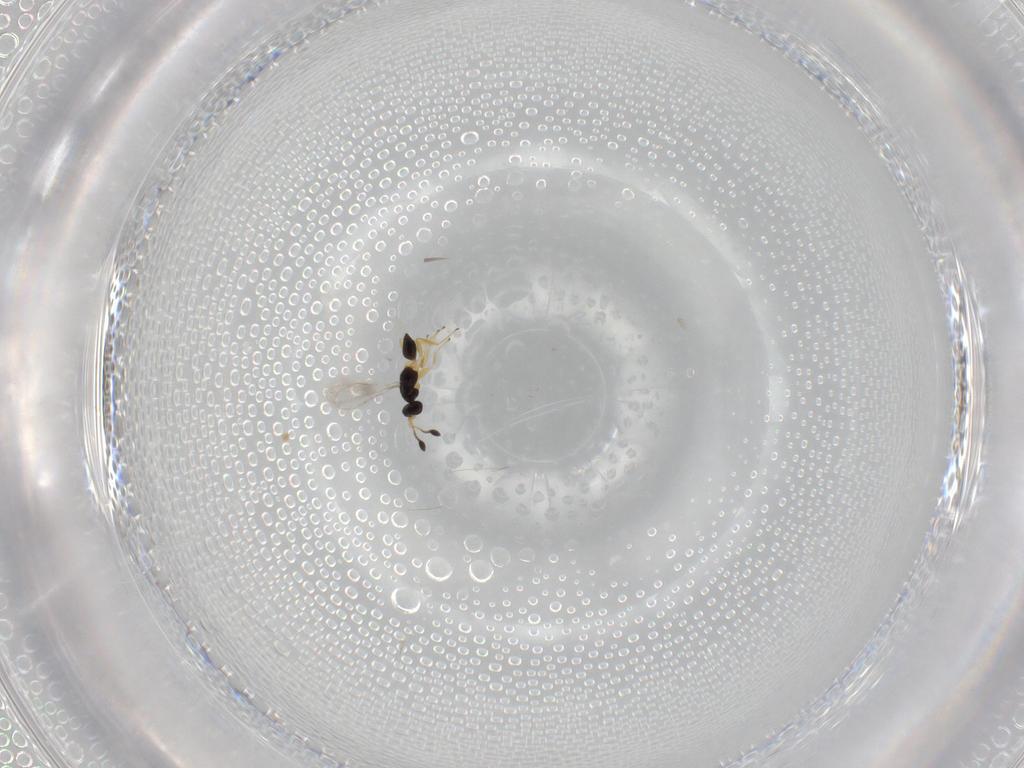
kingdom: Animalia
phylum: Arthropoda
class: Insecta
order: Hymenoptera
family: Mymaridae
